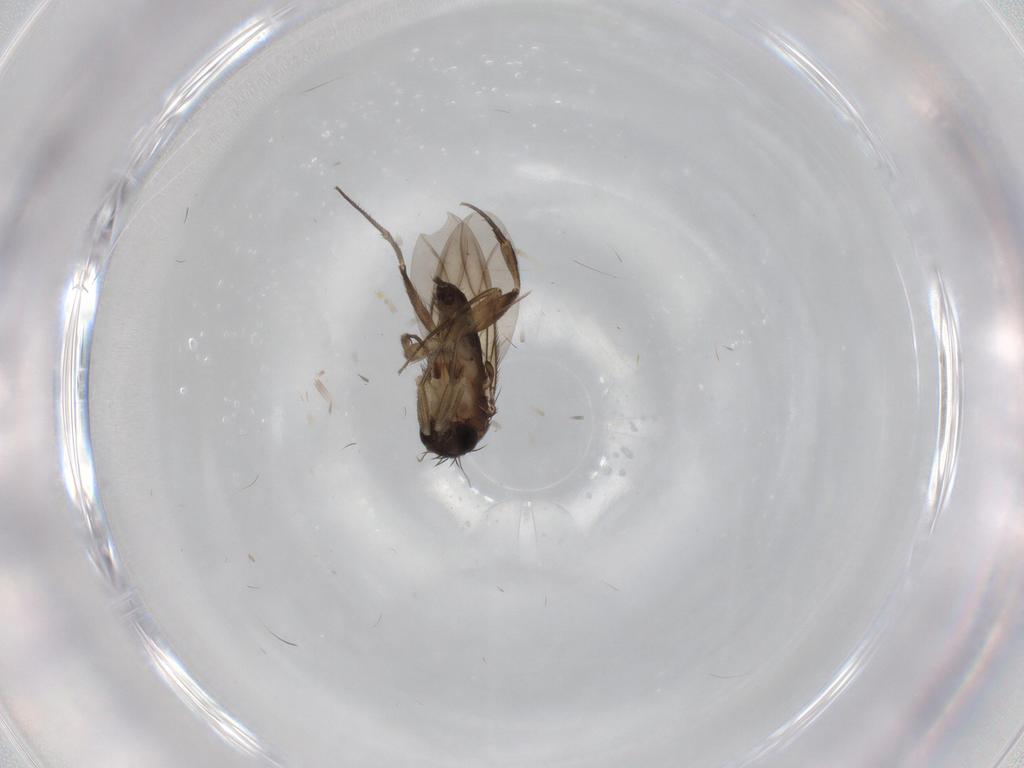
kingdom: Animalia
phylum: Arthropoda
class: Insecta
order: Diptera
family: Phoridae
